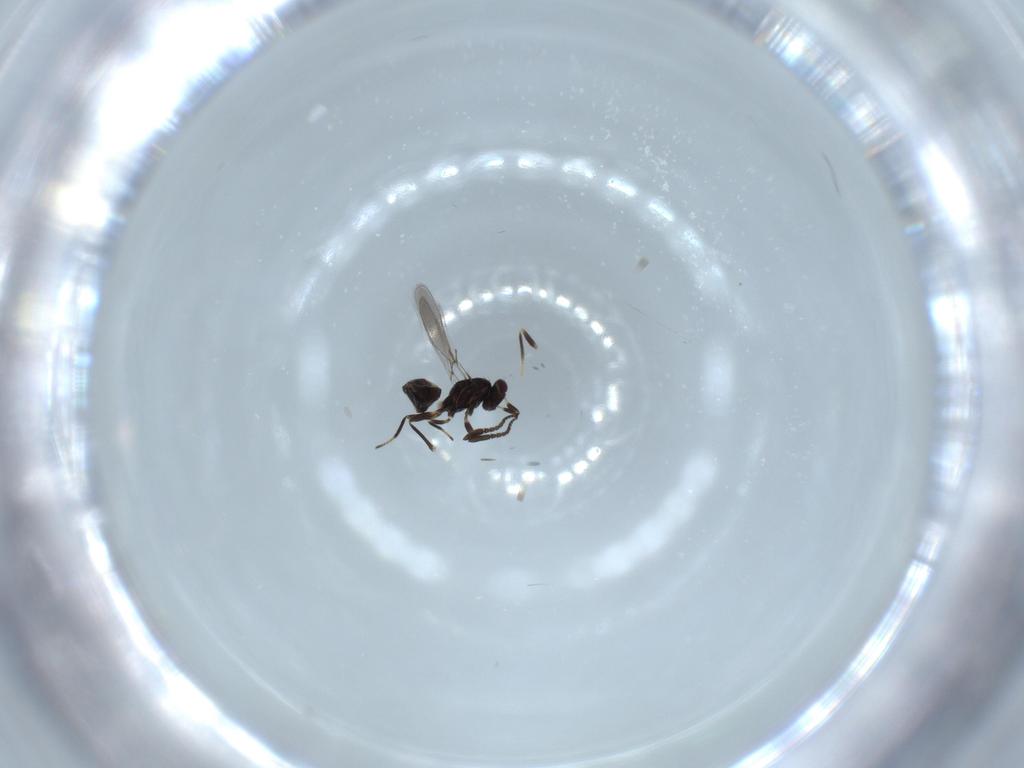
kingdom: Animalia
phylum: Arthropoda
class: Insecta
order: Hymenoptera
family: Mymaridae
